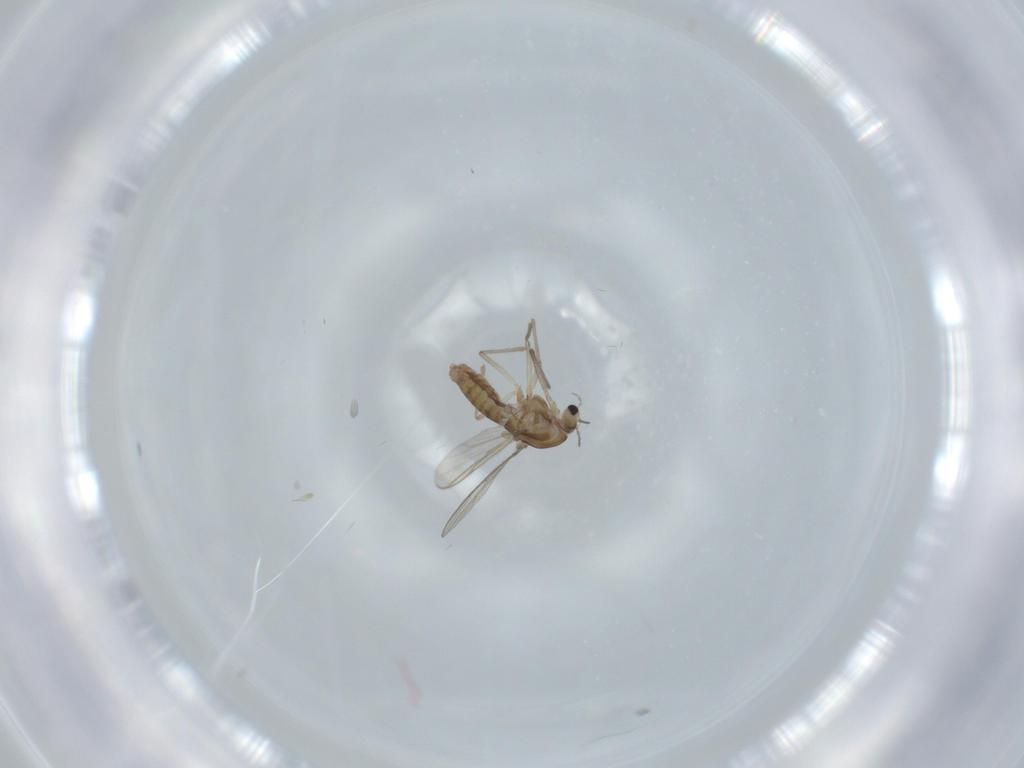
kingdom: Animalia
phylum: Arthropoda
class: Insecta
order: Diptera
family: Chironomidae
